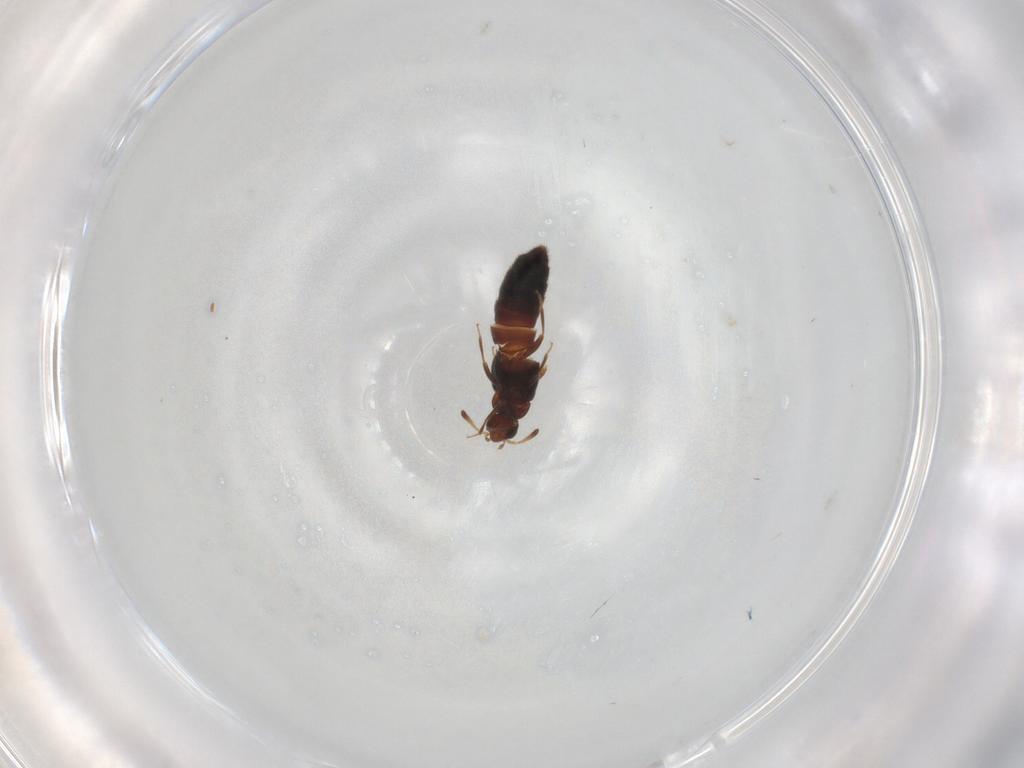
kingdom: Animalia
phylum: Arthropoda
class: Insecta
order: Coleoptera
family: Staphylinidae
